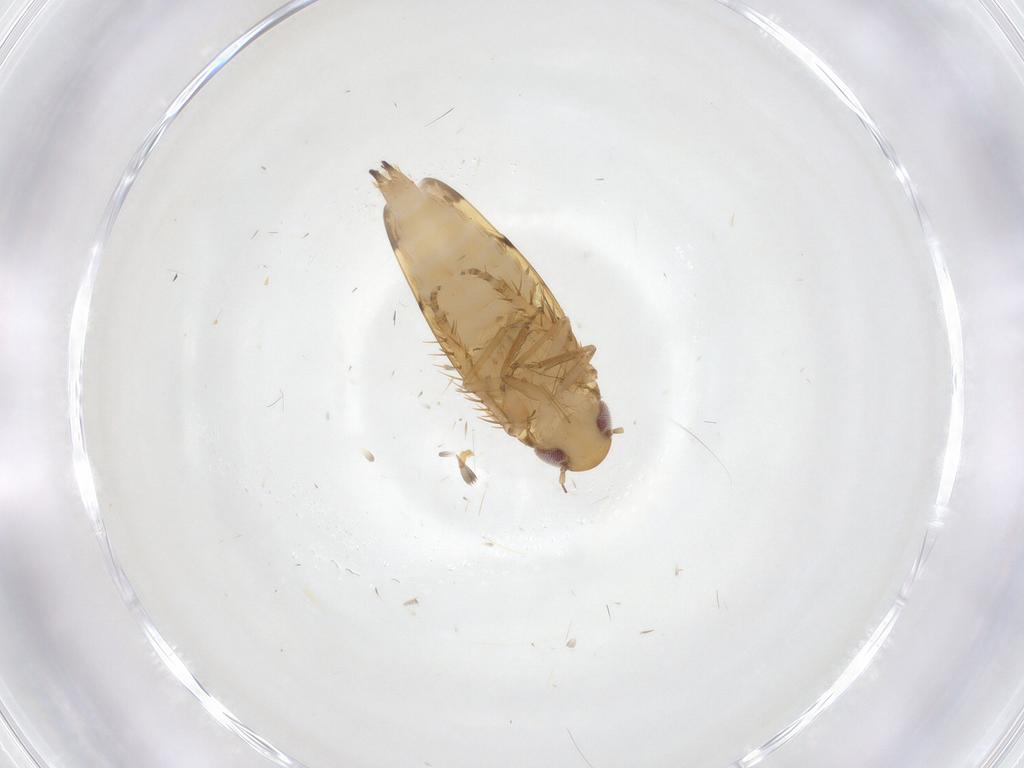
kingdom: Animalia
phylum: Arthropoda
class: Insecta
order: Hemiptera
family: Cicadellidae
